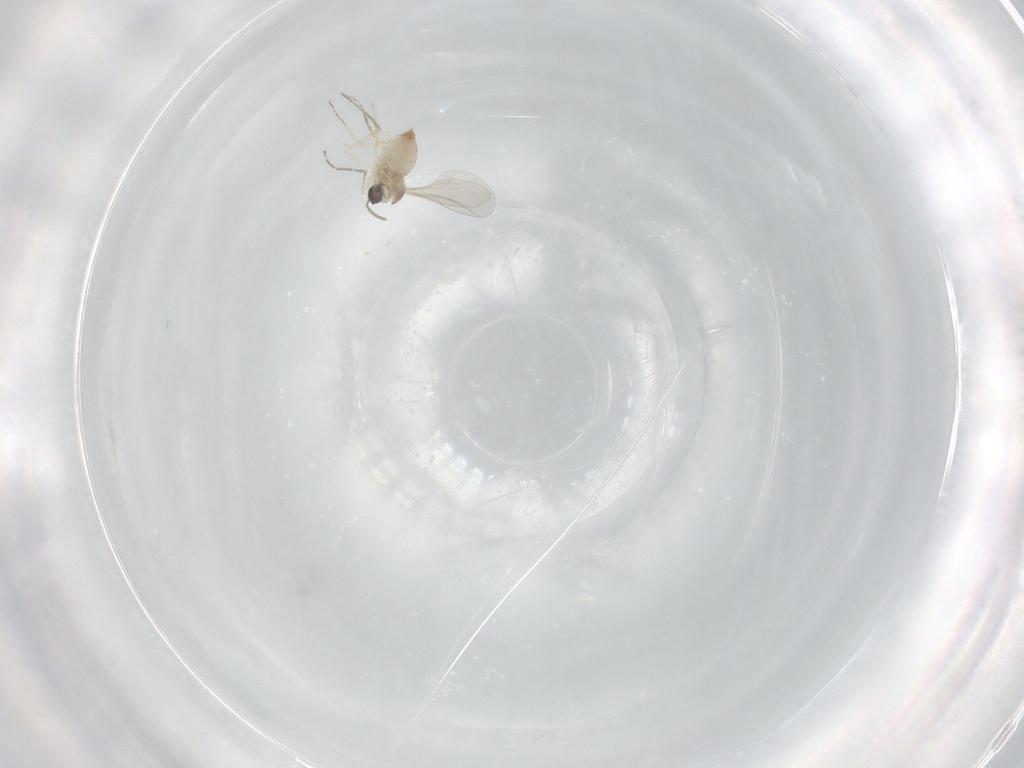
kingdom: Animalia
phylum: Arthropoda
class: Insecta
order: Diptera
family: Cecidomyiidae
